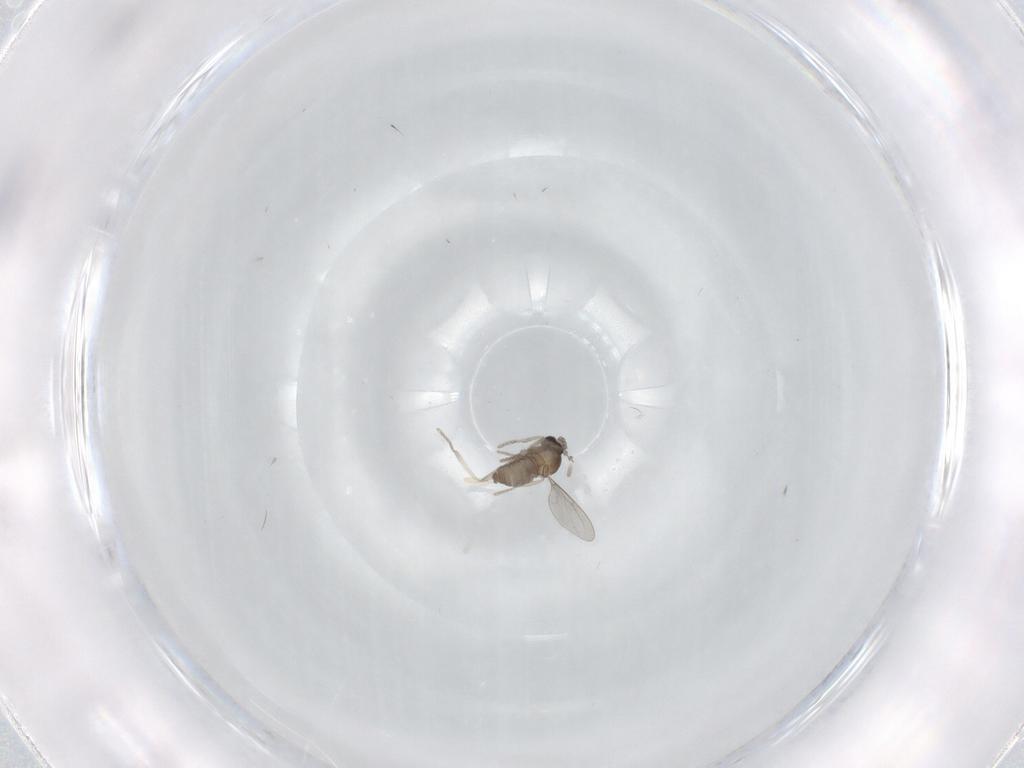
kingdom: Animalia
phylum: Arthropoda
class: Insecta
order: Diptera
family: Cecidomyiidae
